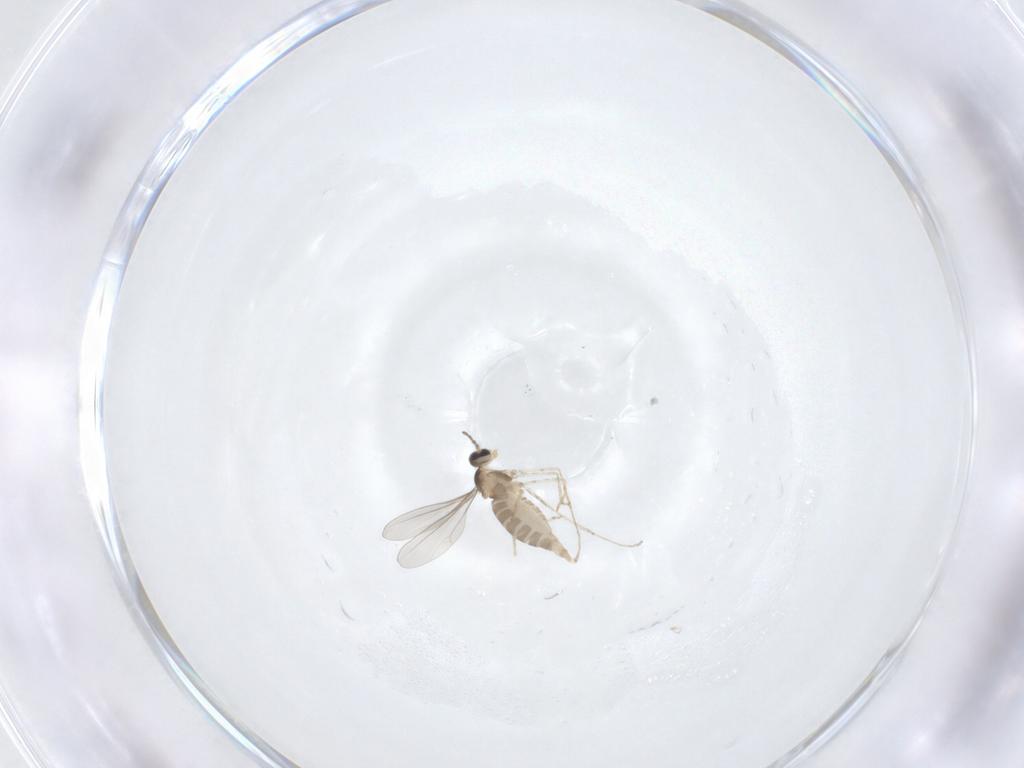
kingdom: Animalia
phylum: Arthropoda
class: Insecta
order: Diptera
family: Cecidomyiidae
